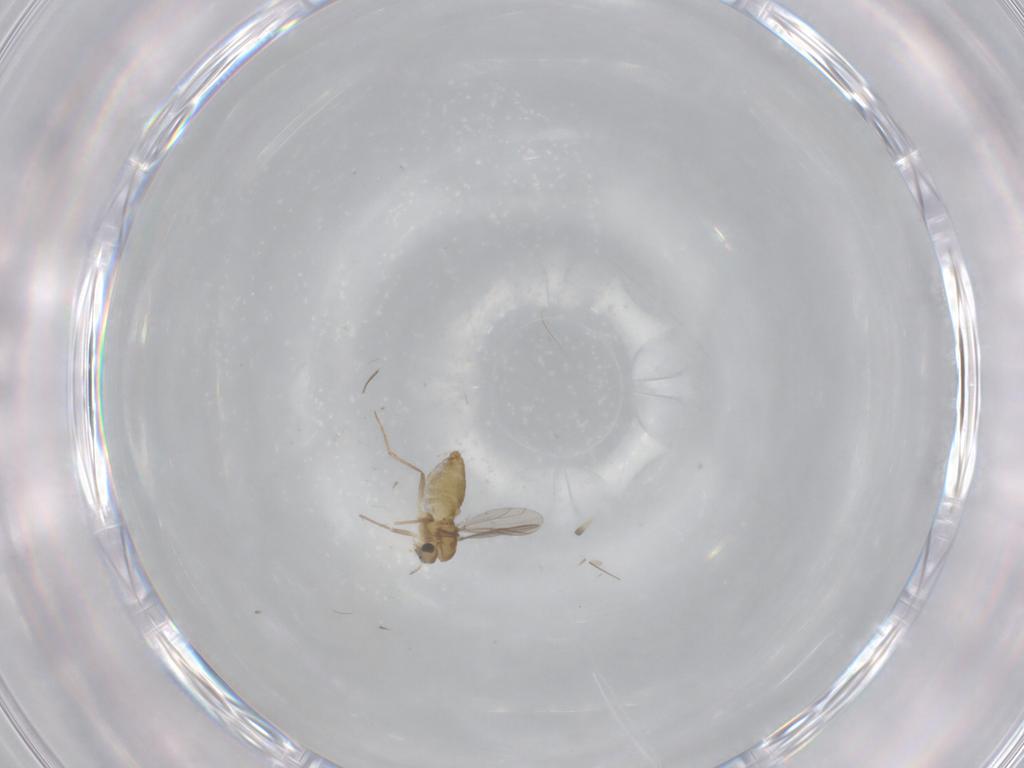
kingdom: Animalia
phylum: Arthropoda
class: Insecta
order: Diptera
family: Chironomidae
